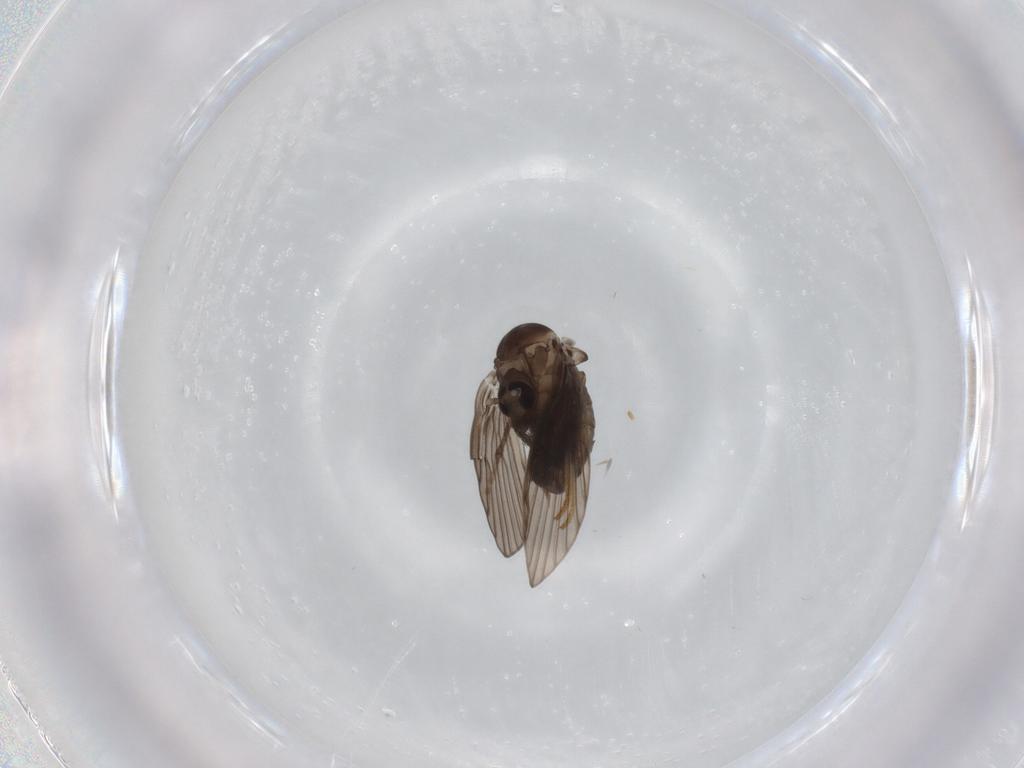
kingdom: Animalia
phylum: Arthropoda
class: Insecta
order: Diptera
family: Psychodidae
